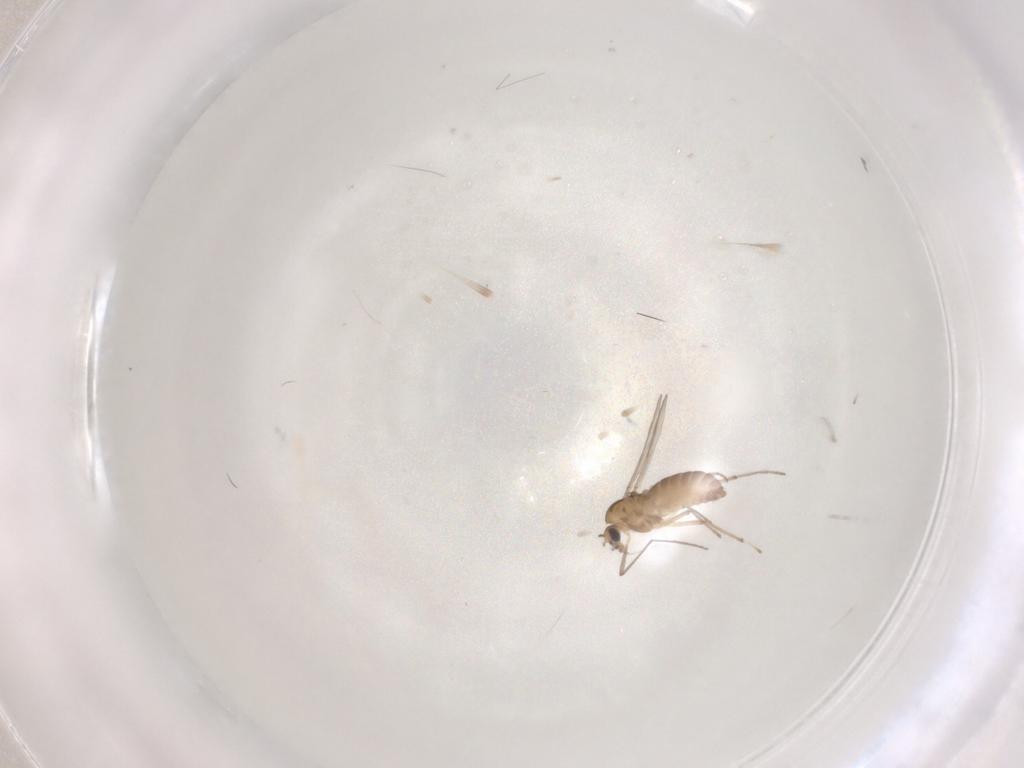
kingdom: Animalia
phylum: Arthropoda
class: Insecta
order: Diptera
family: Chironomidae
